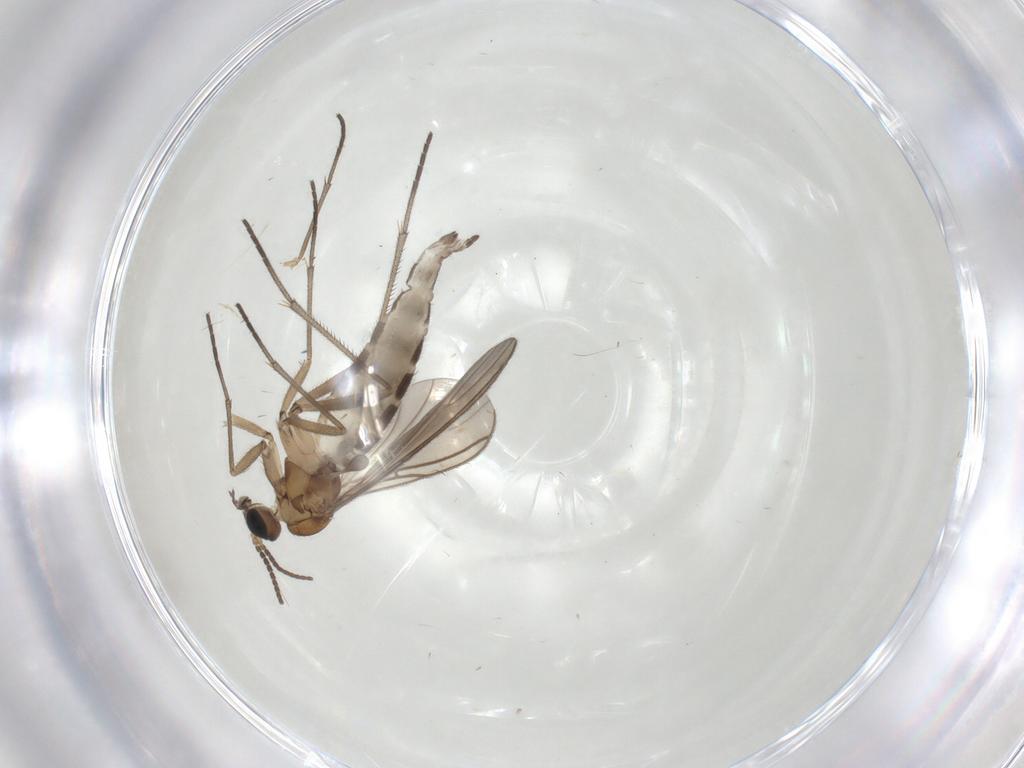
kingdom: Animalia
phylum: Arthropoda
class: Insecta
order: Diptera
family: Sciaridae
